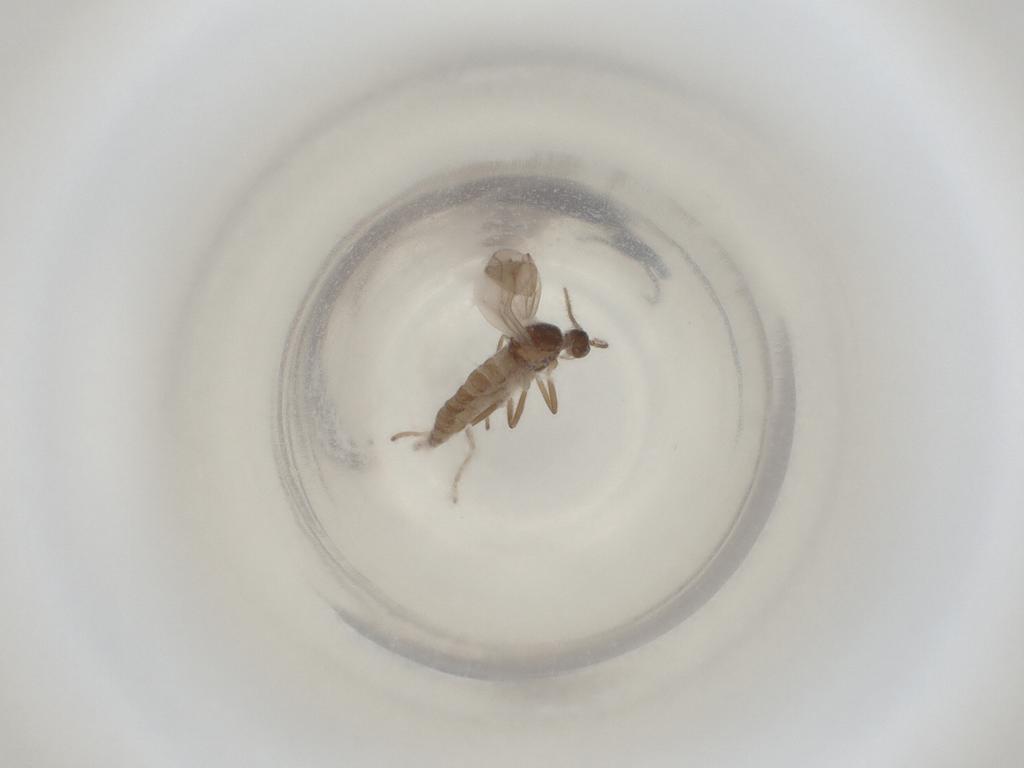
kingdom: Animalia
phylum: Arthropoda
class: Insecta
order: Diptera
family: Cecidomyiidae
